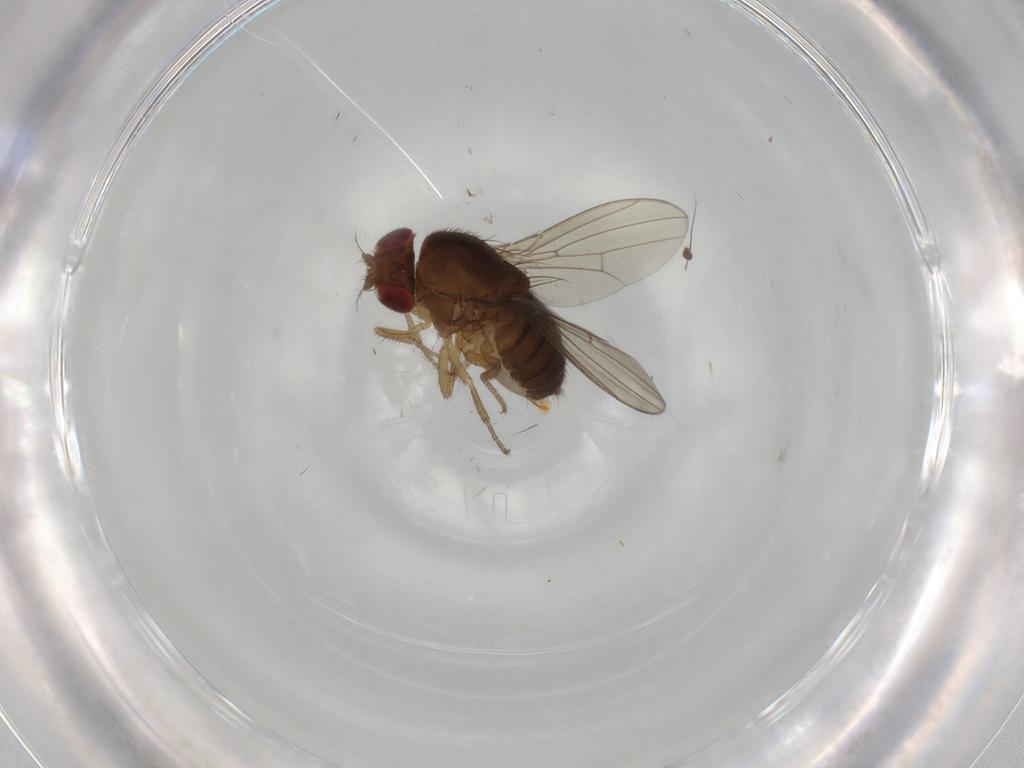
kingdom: Animalia
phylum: Arthropoda
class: Insecta
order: Diptera
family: Drosophilidae
